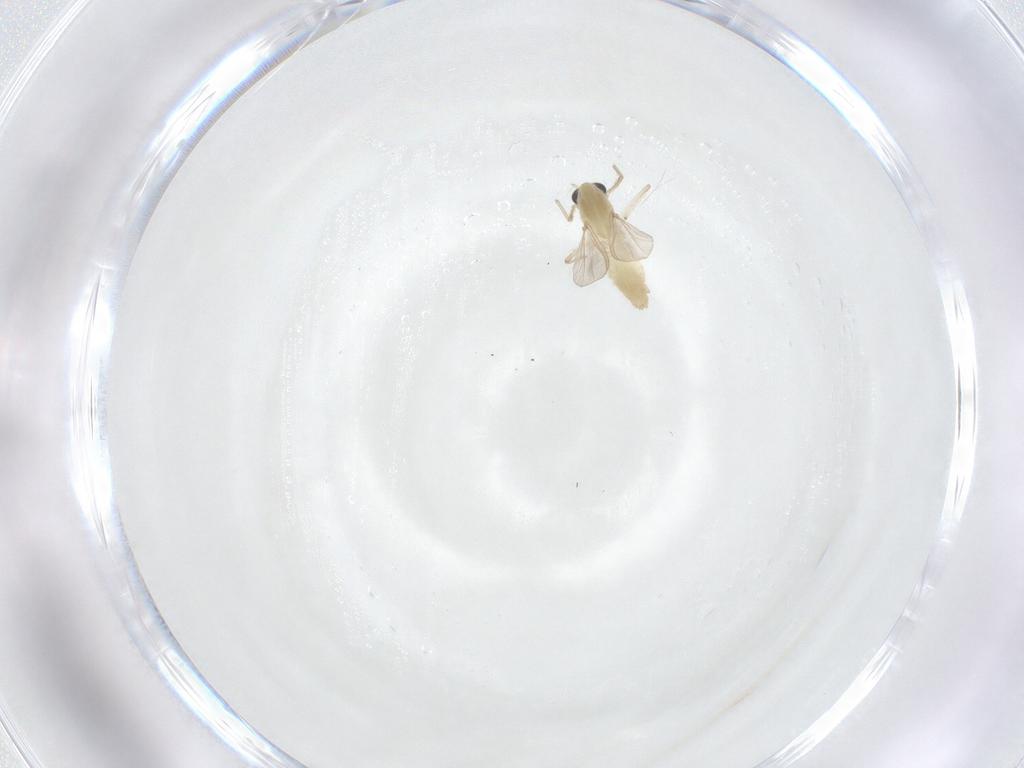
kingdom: Animalia
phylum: Arthropoda
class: Insecta
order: Diptera
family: Chironomidae
